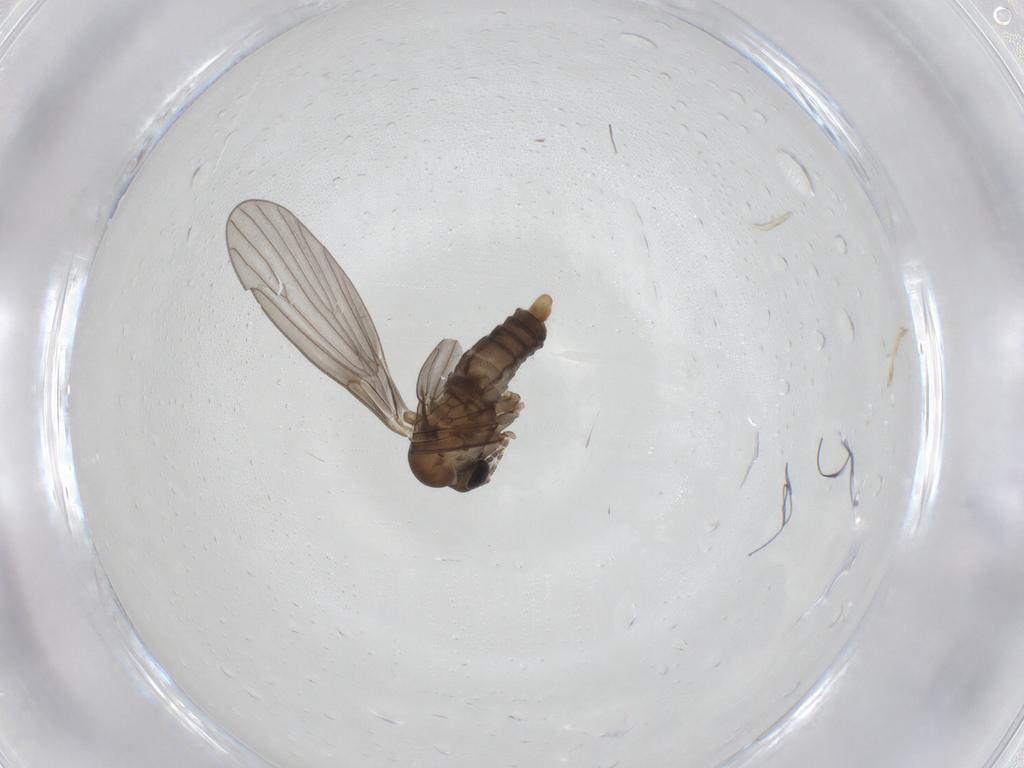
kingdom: Animalia
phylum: Arthropoda
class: Insecta
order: Diptera
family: Psychodidae
